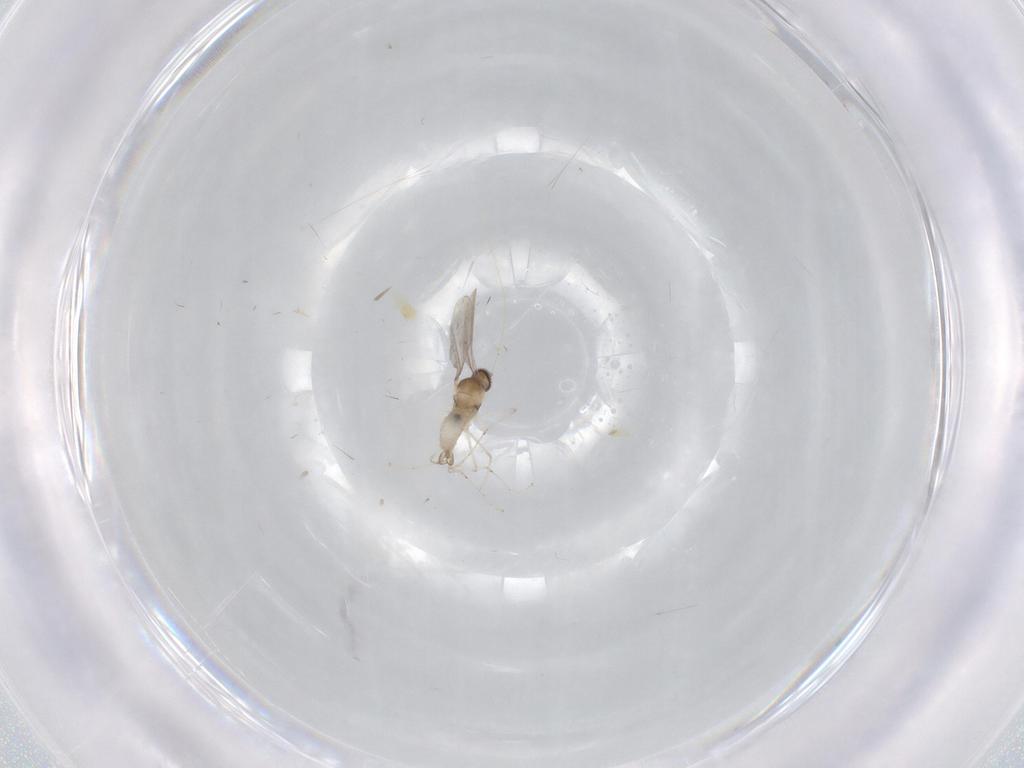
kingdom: Animalia
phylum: Arthropoda
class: Insecta
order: Diptera
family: Cecidomyiidae
